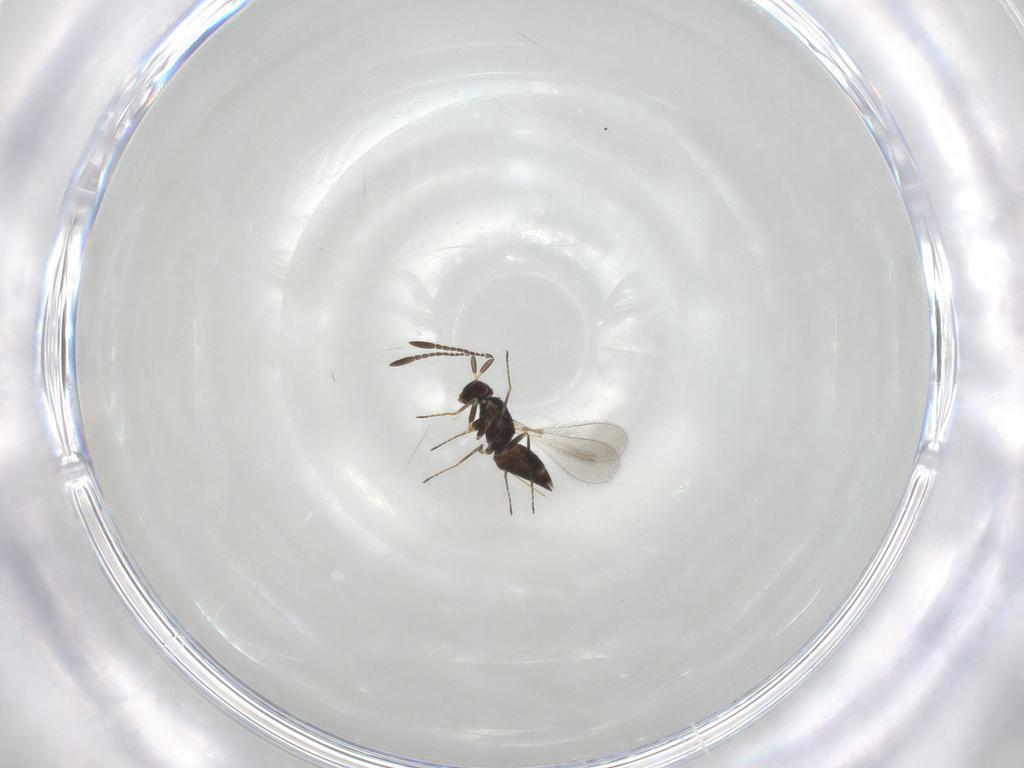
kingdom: Animalia
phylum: Arthropoda
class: Insecta
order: Hymenoptera
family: Mymaridae
